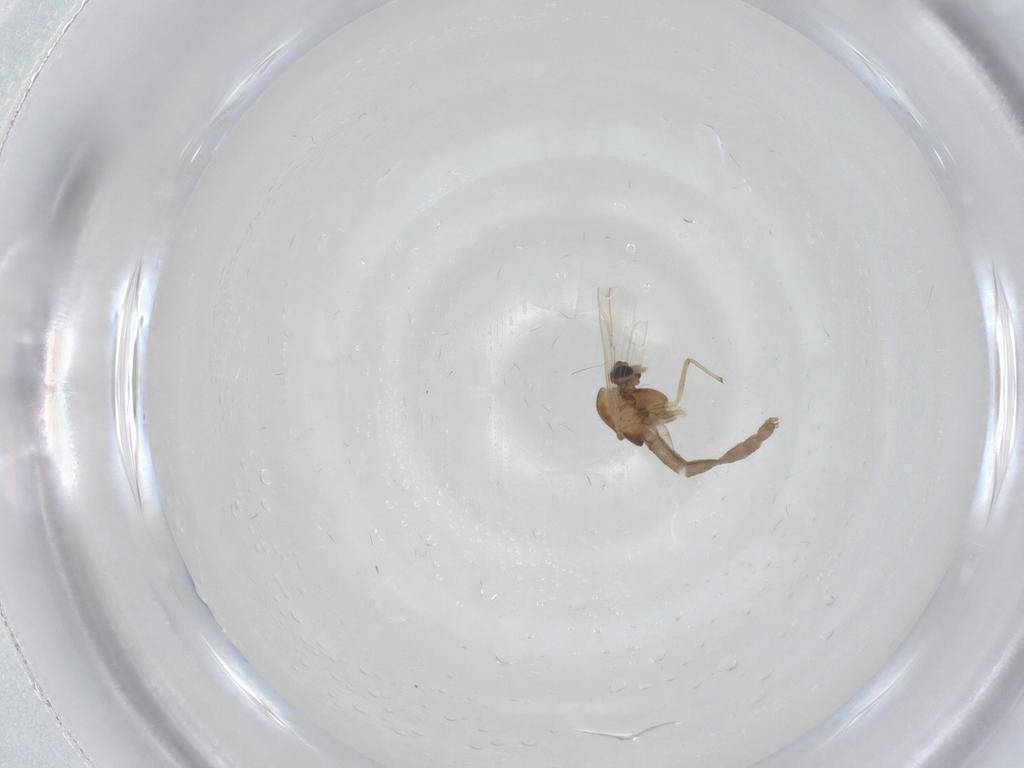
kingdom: Animalia
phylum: Arthropoda
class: Insecta
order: Diptera
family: Chironomidae
